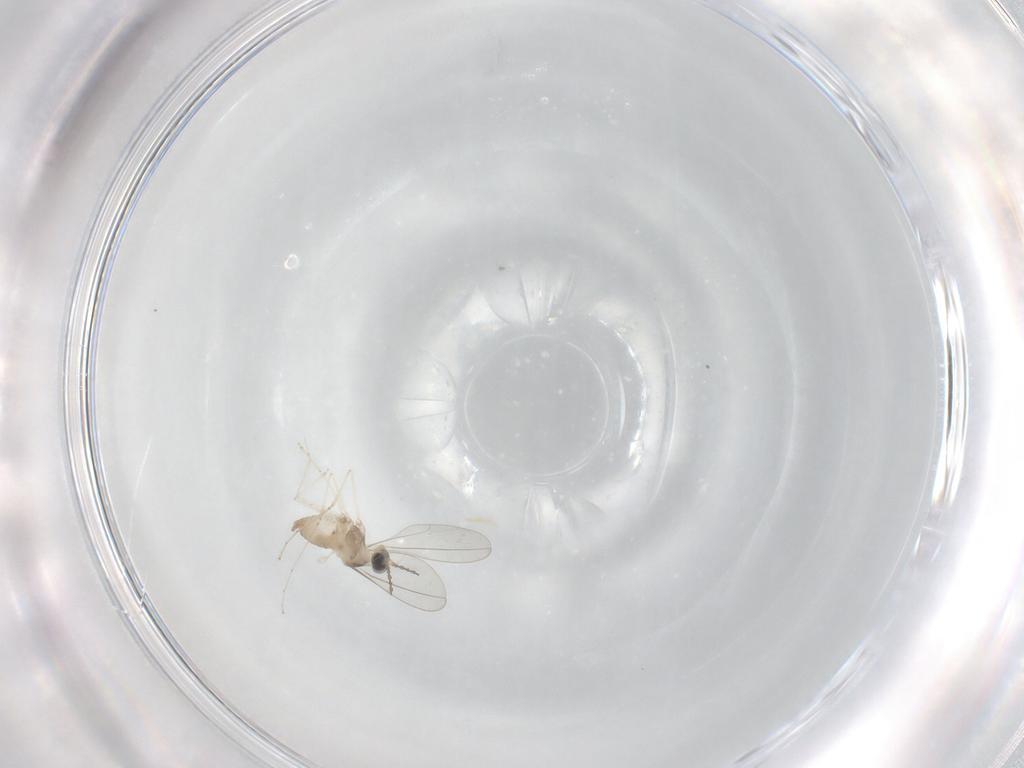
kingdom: Animalia
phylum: Arthropoda
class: Insecta
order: Diptera
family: Cecidomyiidae
